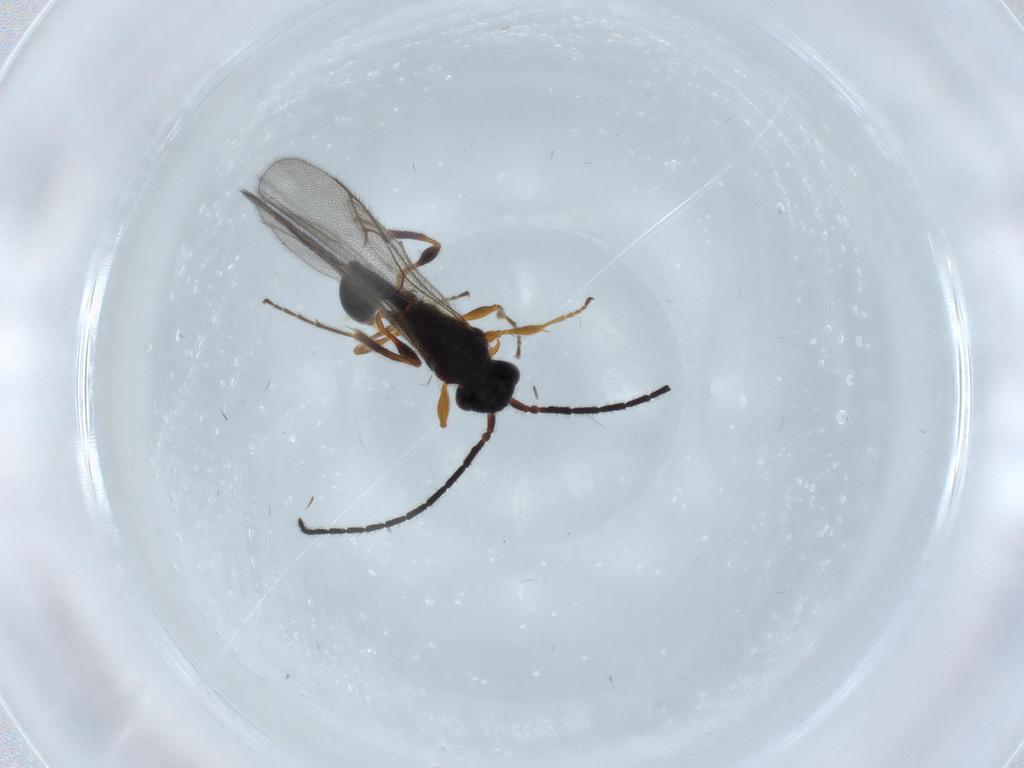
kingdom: Animalia
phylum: Arthropoda
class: Insecta
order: Hymenoptera
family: Diapriidae
